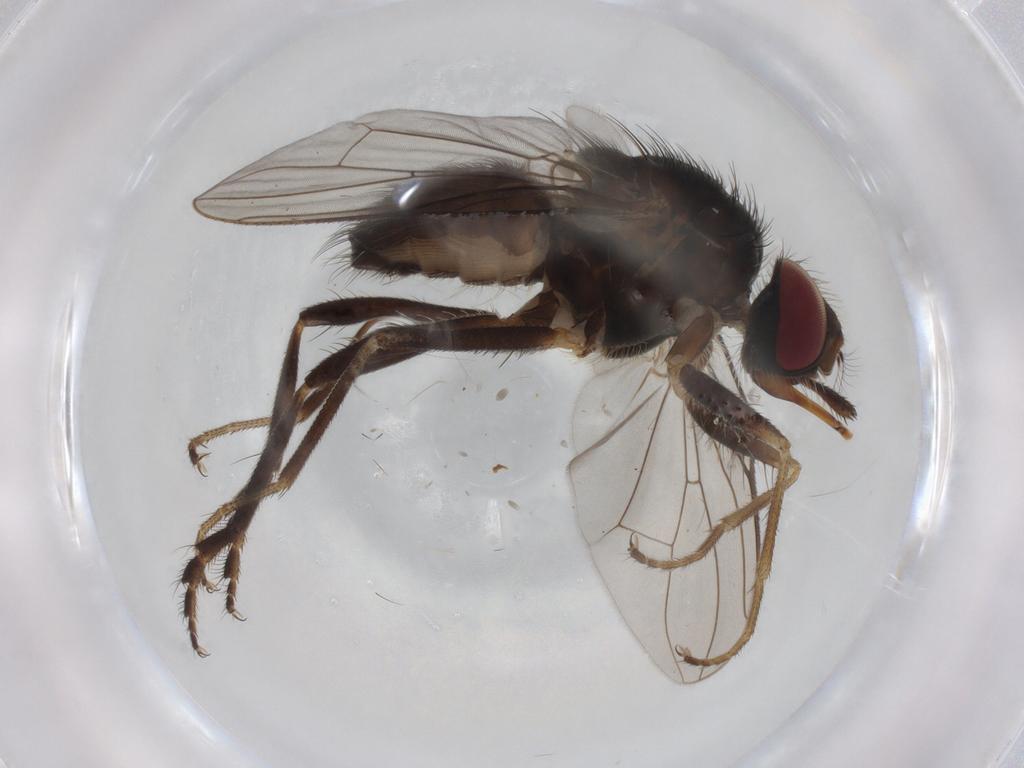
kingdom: Animalia
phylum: Arthropoda
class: Insecta
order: Diptera
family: Cecidomyiidae
